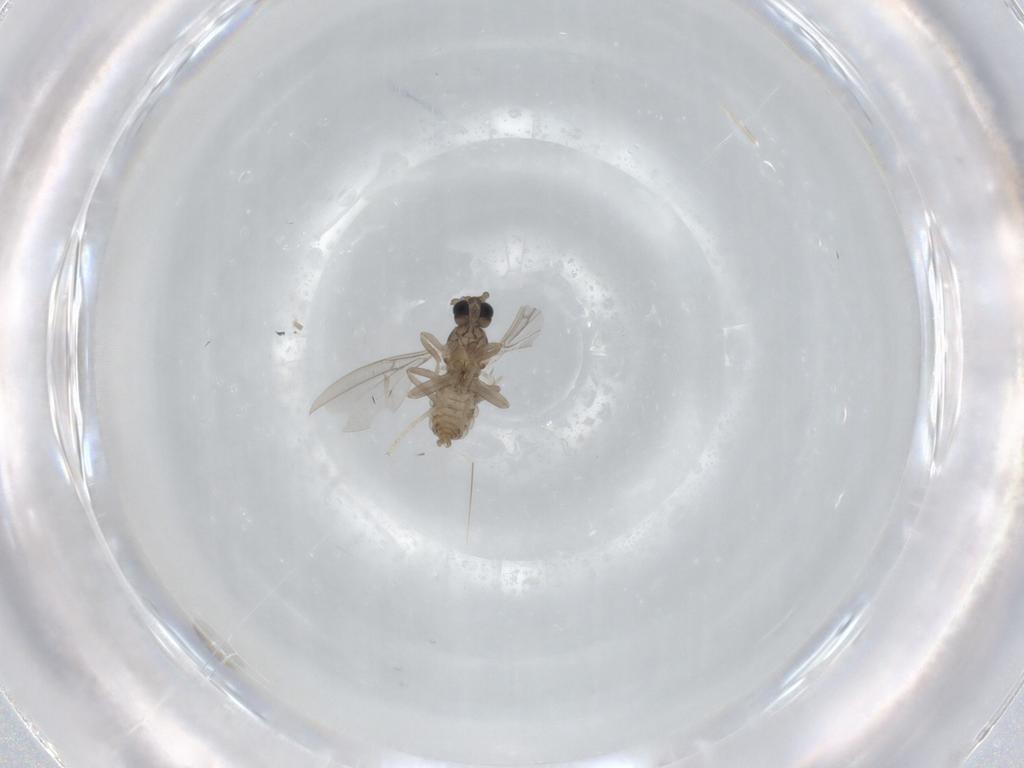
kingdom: Animalia
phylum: Arthropoda
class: Insecta
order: Diptera
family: Cecidomyiidae
